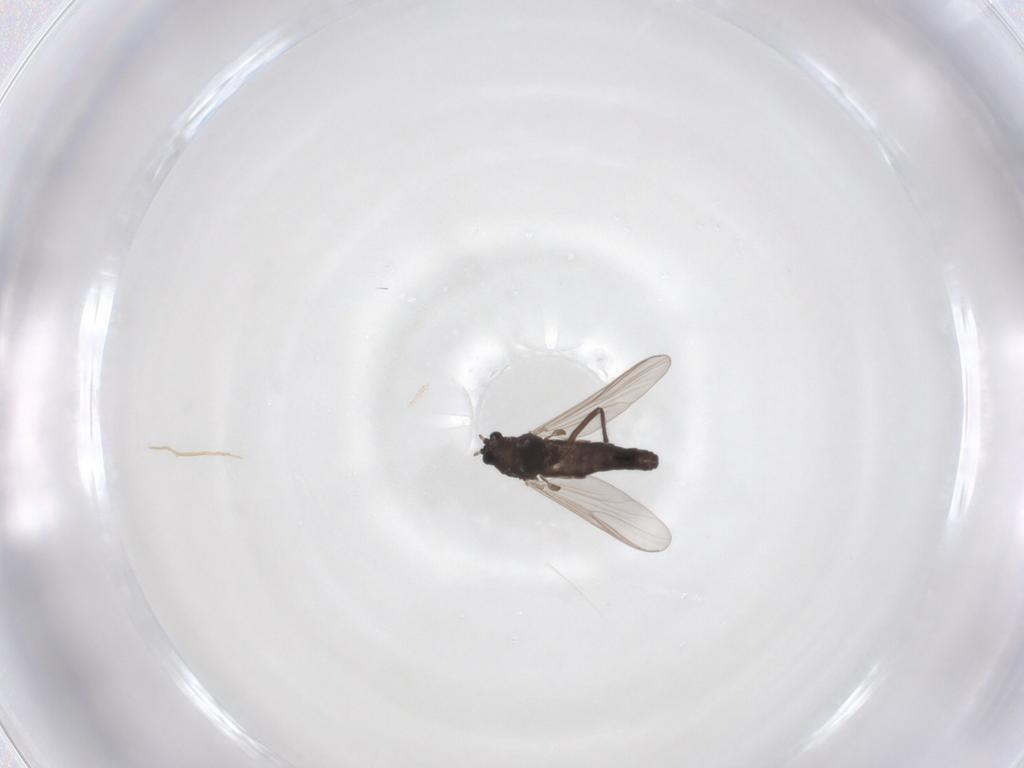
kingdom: Animalia
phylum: Arthropoda
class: Insecta
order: Diptera
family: Chironomidae
